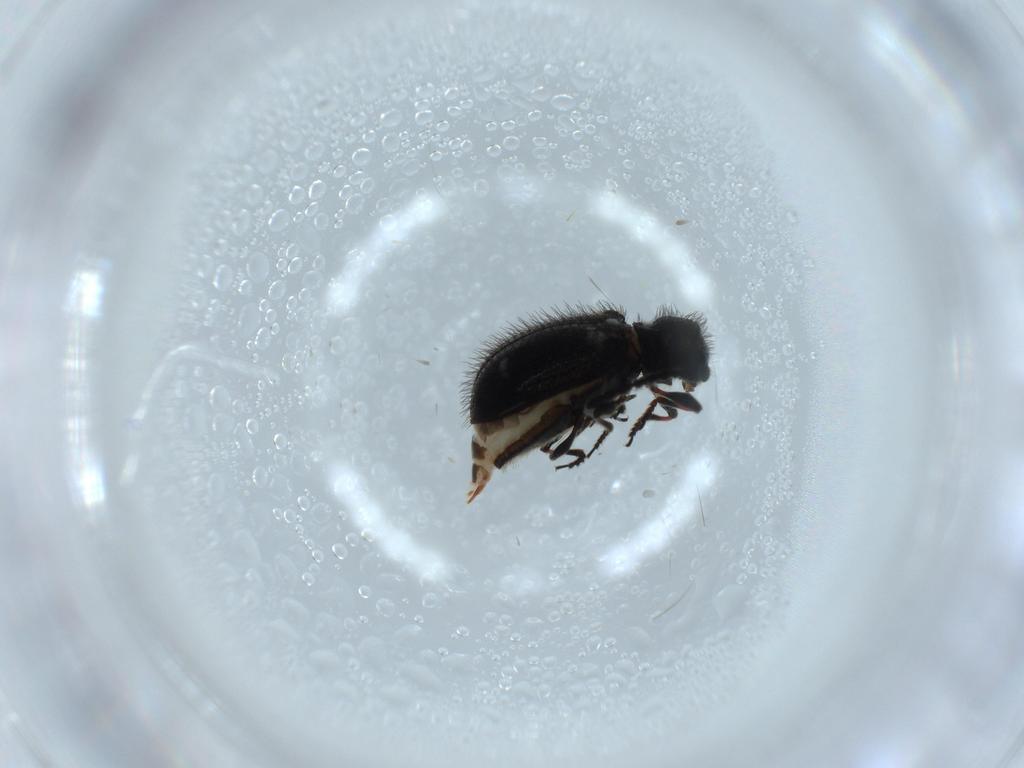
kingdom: Animalia
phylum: Arthropoda
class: Insecta
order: Coleoptera
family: Ptinidae
